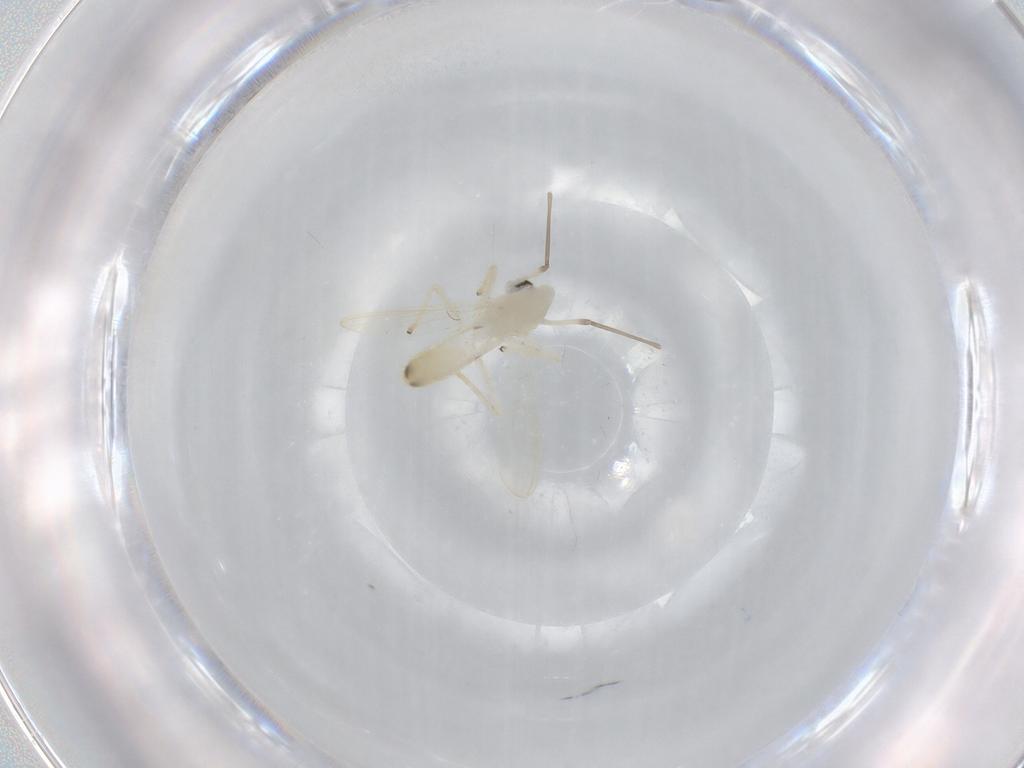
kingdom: Animalia
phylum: Arthropoda
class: Insecta
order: Diptera
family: Chironomidae
